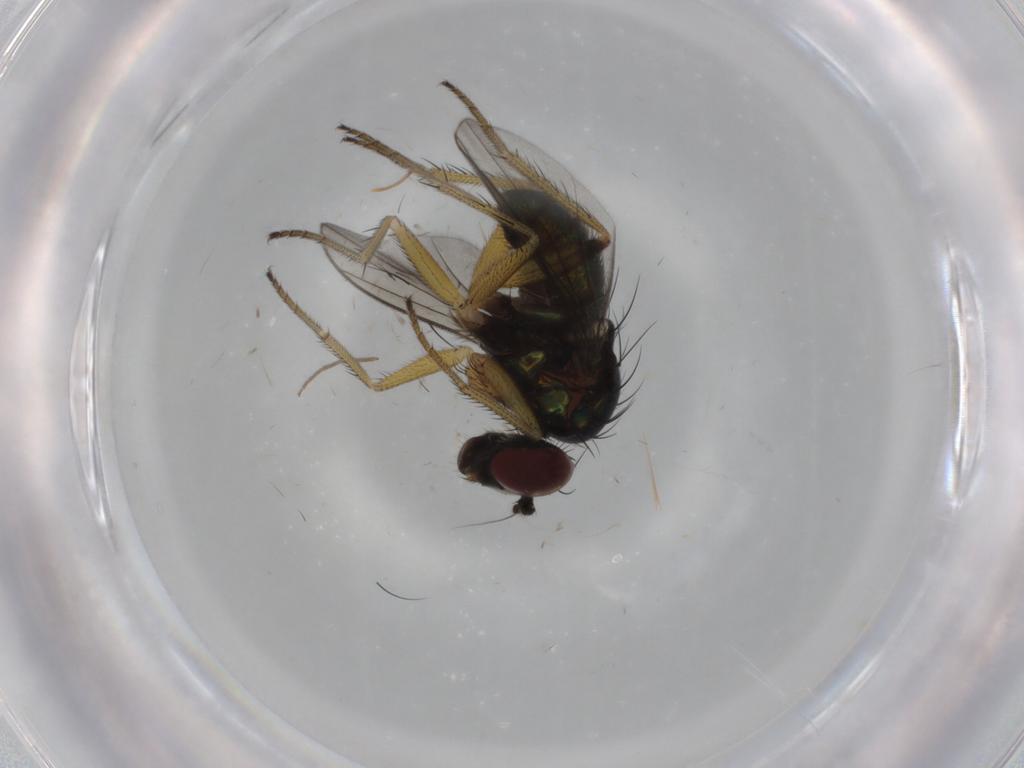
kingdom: Animalia
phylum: Arthropoda
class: Insecta
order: Diptera
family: Dolichopodidae
